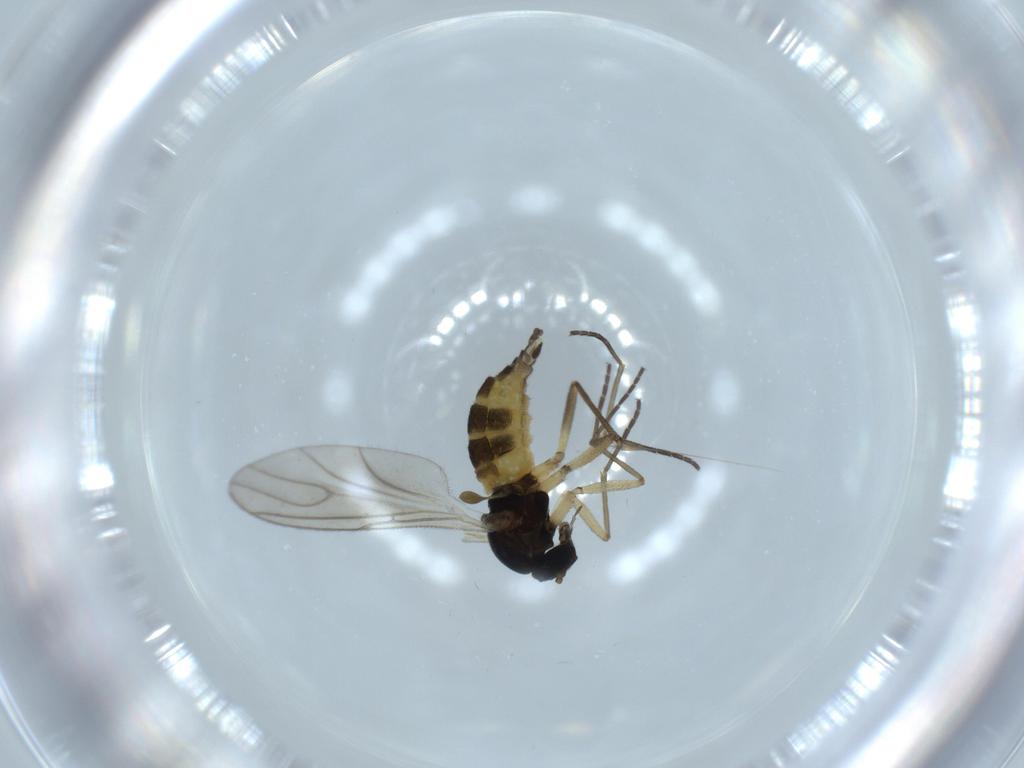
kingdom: Animalia
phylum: Arthropoda
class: Insecta
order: Diptera
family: Sciaridae
